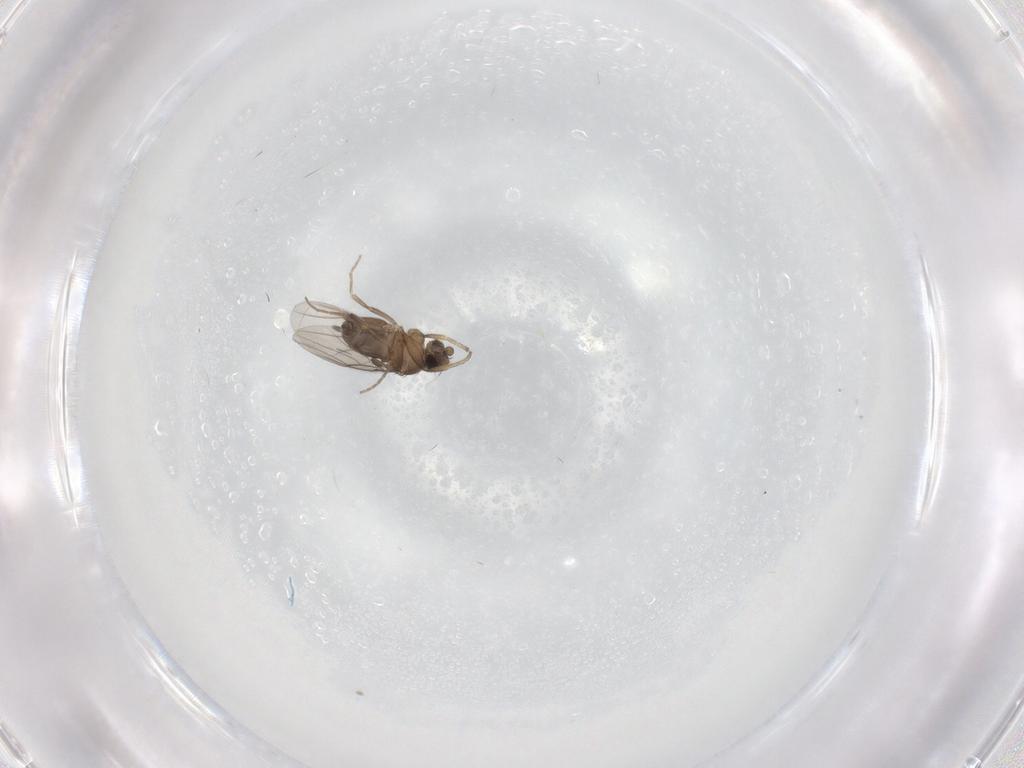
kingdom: Animalia
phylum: Arthropoda
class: Insecta
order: Diptera
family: Phoridae
